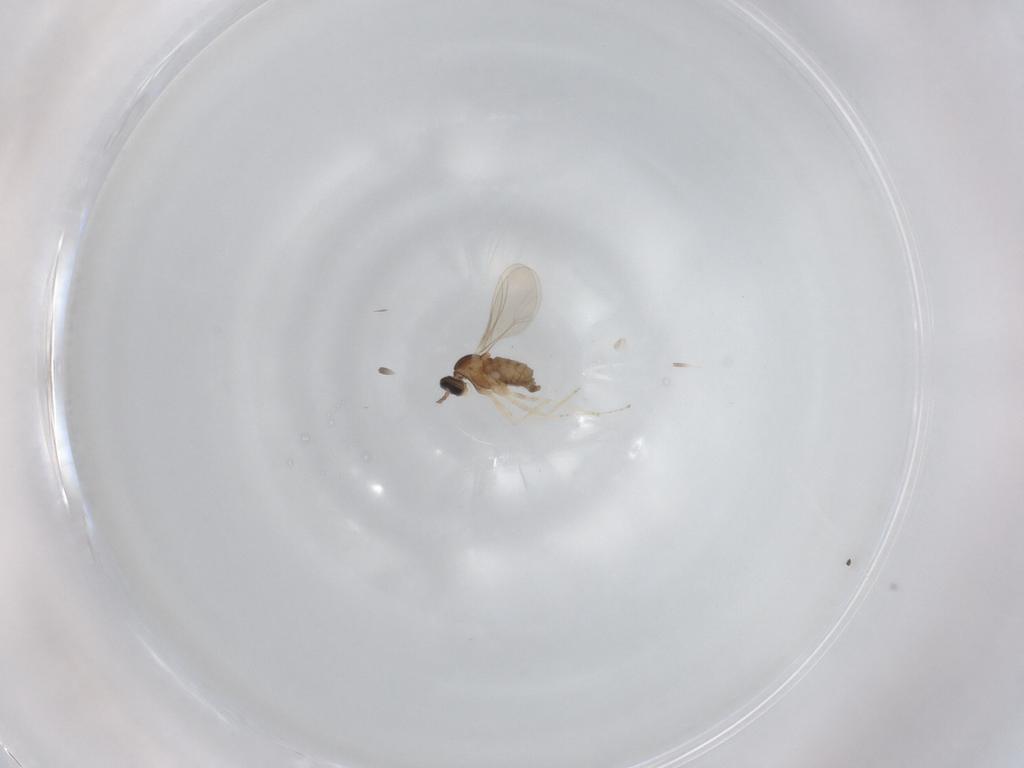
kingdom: Animalia
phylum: Arthropoda
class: Insecta
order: Diptera
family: Cecidomyiidae
